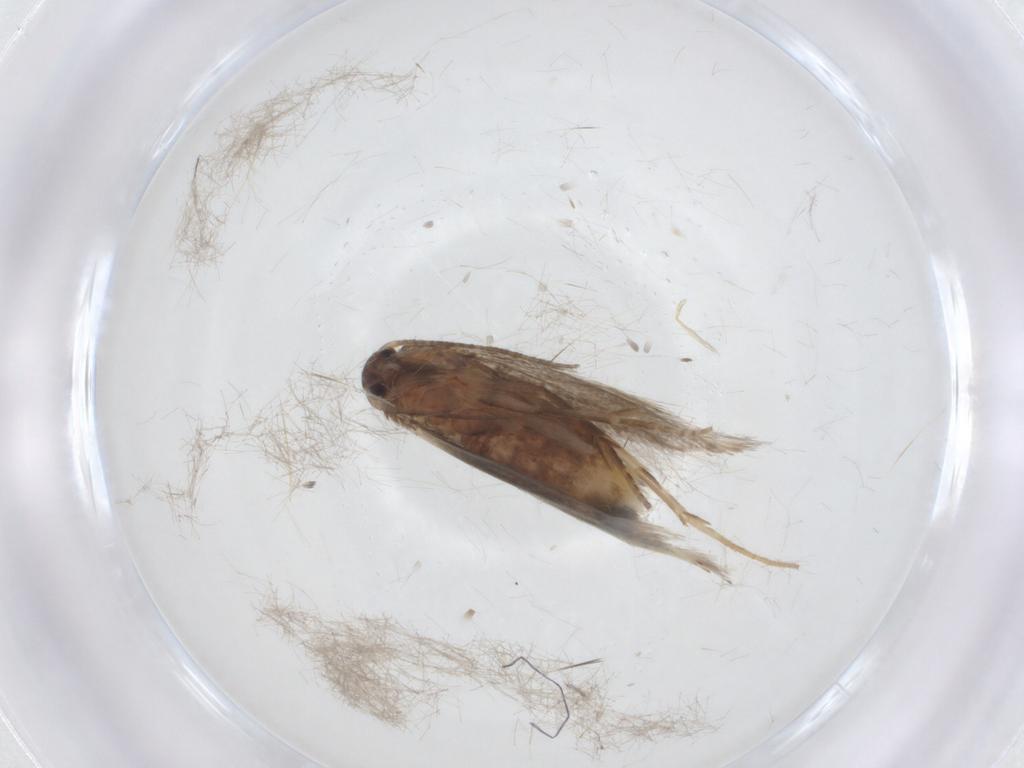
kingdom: Animalia
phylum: Arthropoda
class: Insecta
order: Lepidoptera
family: Elachistidae
